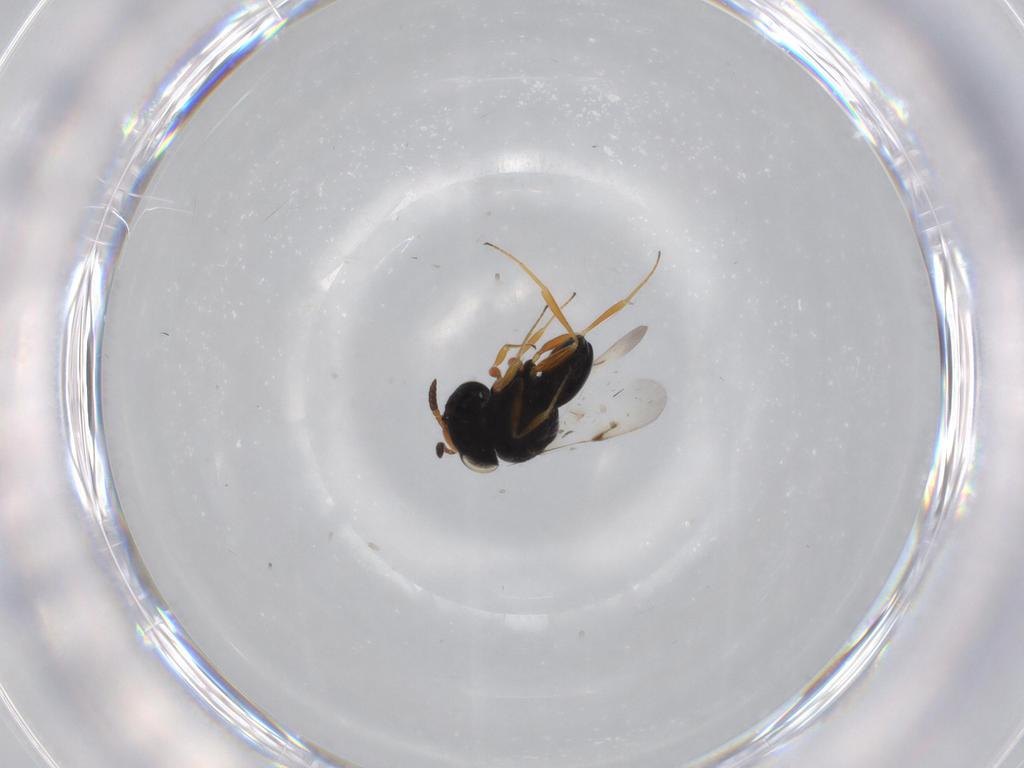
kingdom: Animalia
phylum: Arthropoda
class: Insecta
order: Hymenoptera
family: Scelionidae
